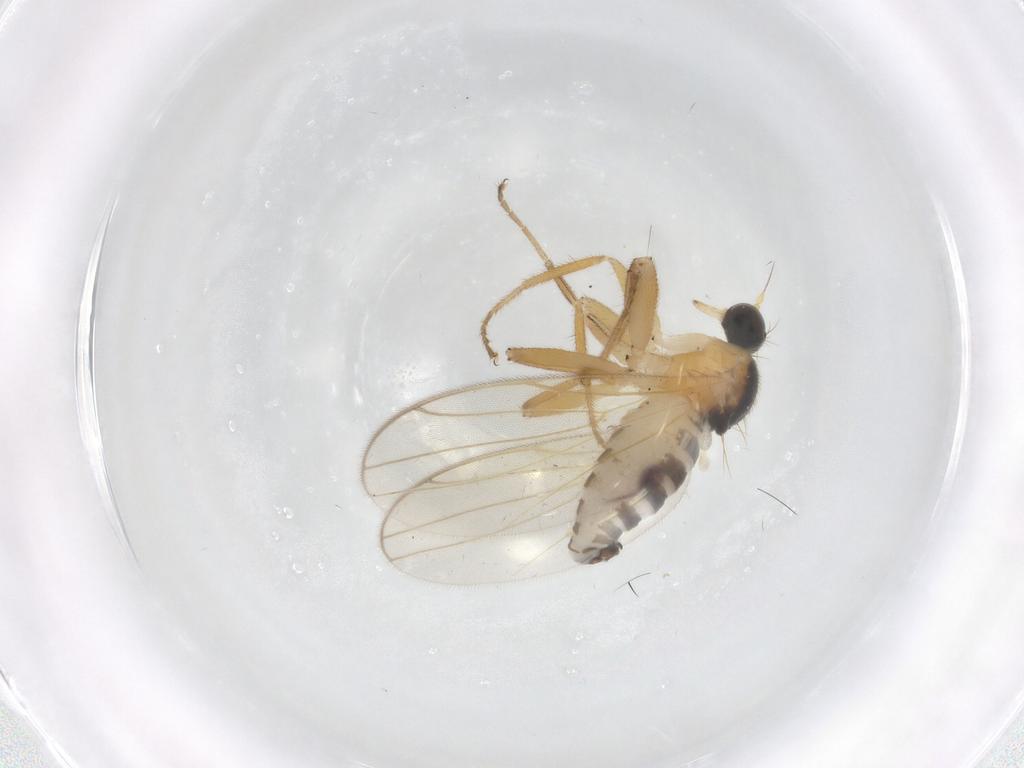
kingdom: Animalia
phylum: Arthropoda
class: Insecta
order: Diptera
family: Hybotidae
